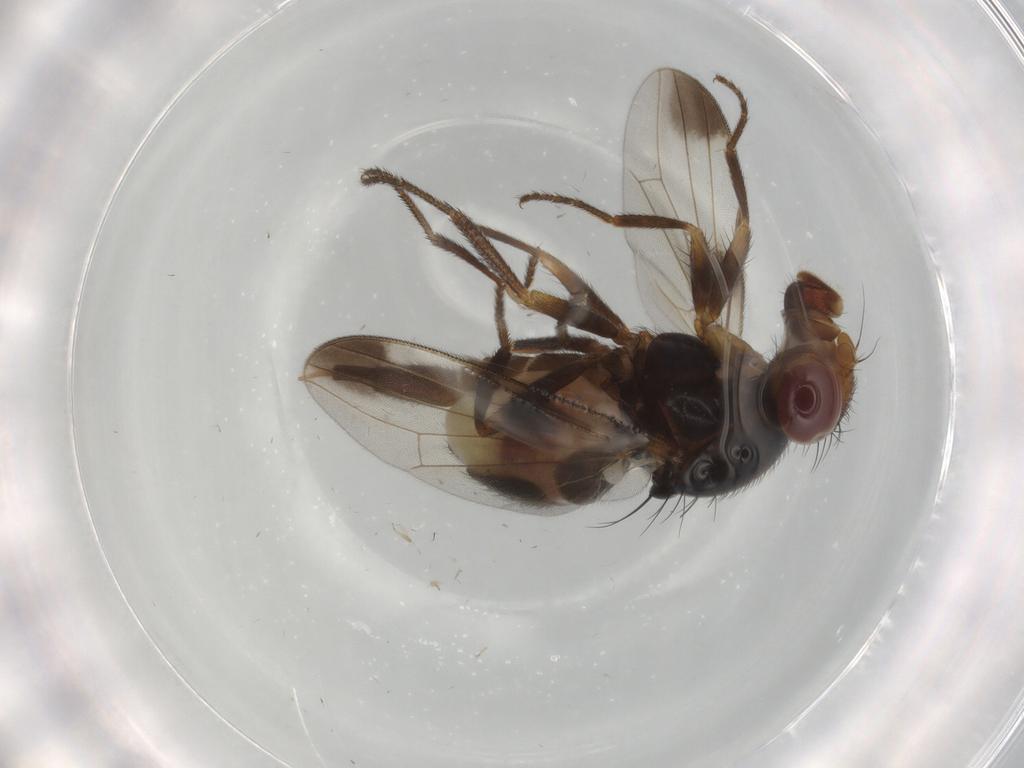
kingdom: Animalia
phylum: Arthropoda
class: Insecta
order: Diptera
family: Ulidiidae
